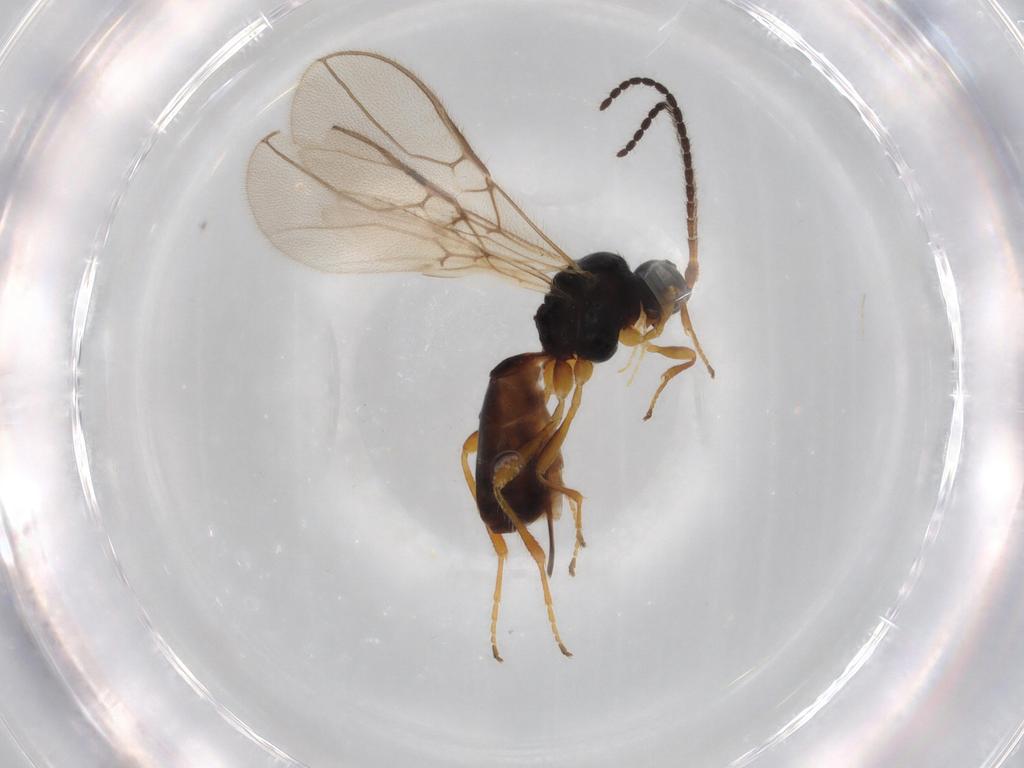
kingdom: Animalia
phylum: Arthropoda
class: Insecta
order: Hymenoptera
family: Braconidae
